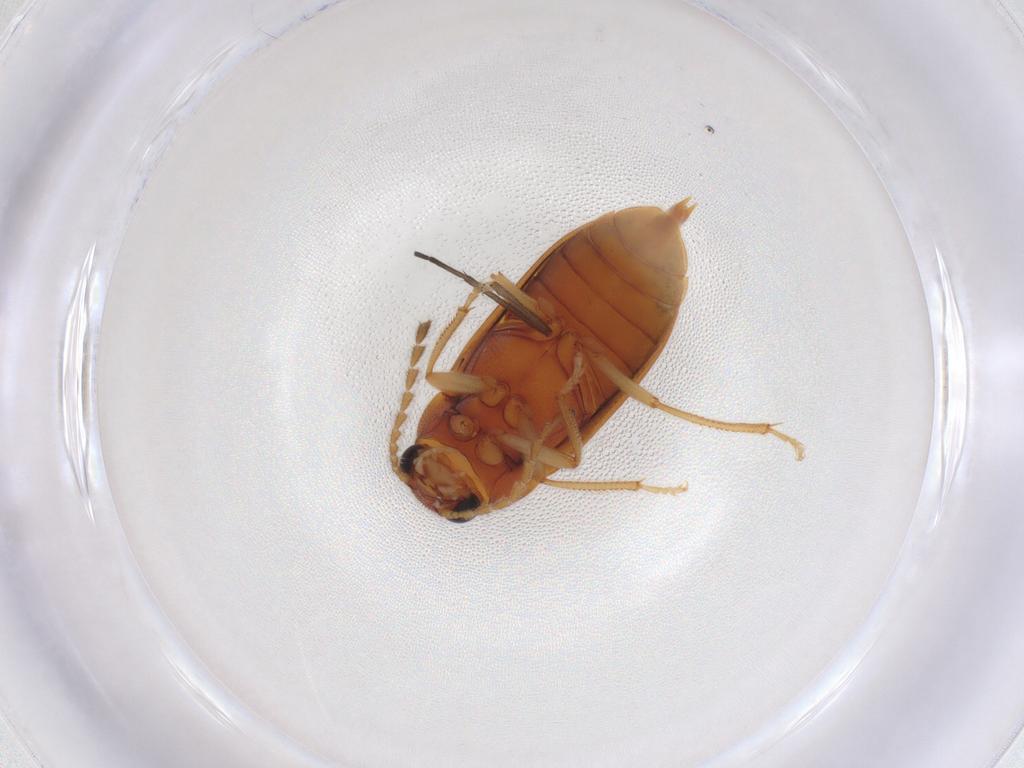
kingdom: Animalia
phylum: Arthropoda
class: Insecta
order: Coleoptera
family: Ptilodactylidae
